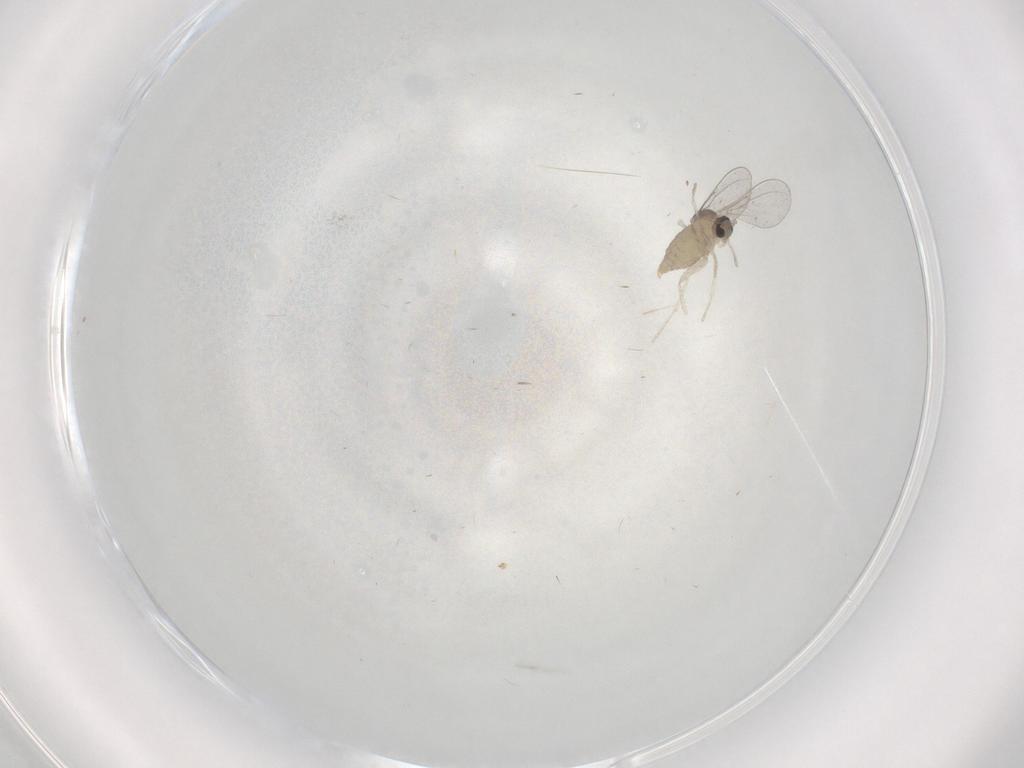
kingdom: Animalia
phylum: Arthropoda
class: Insecta
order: Diptera
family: Cecidomyiidae
